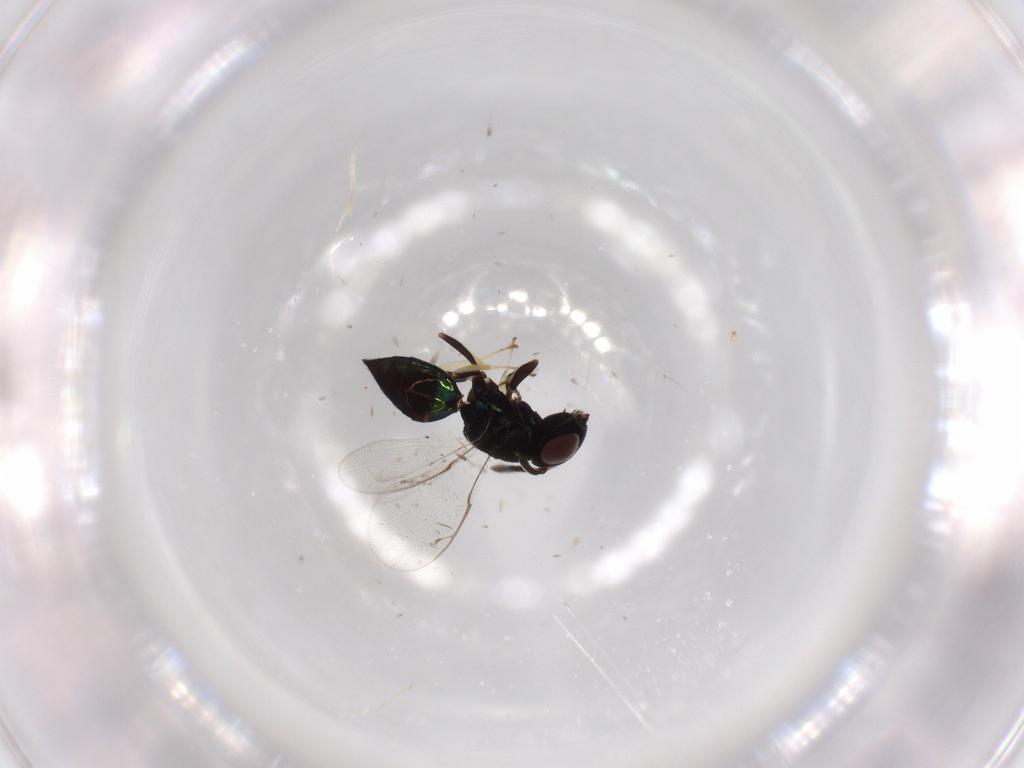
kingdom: Animalia
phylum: Arthropoda
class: Insecta
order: Hymenoptera
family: Pteromalidae
